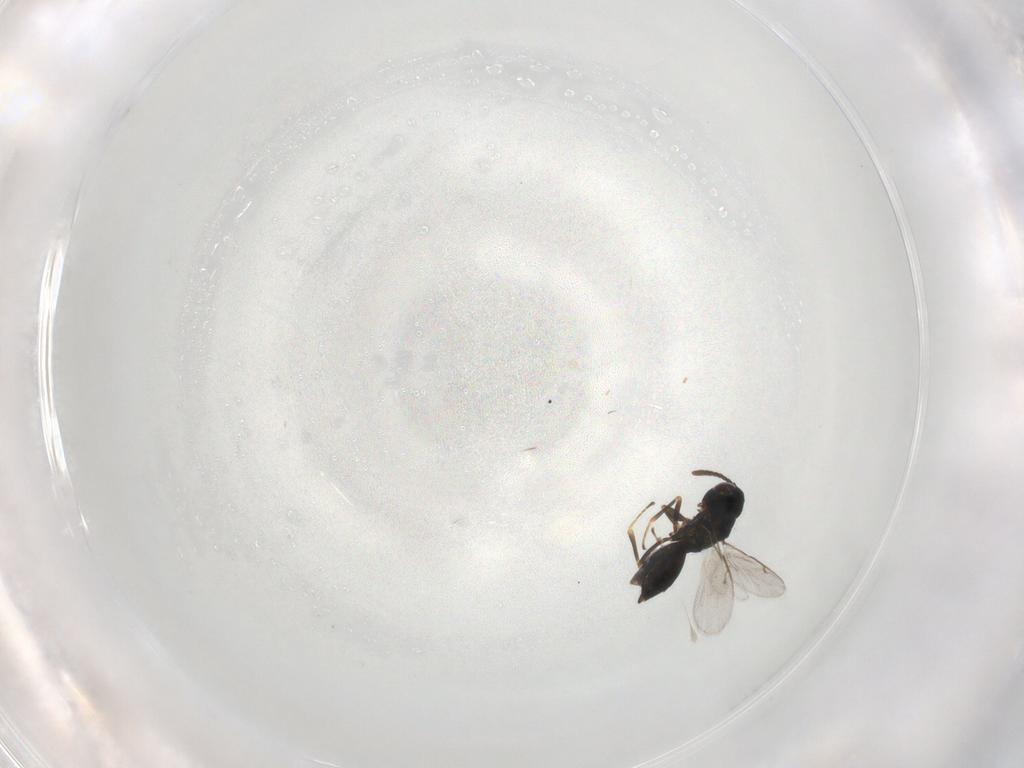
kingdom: Animalia
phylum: Arthropoda
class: Insecta
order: Hymenoptera
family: Pteromalidae
